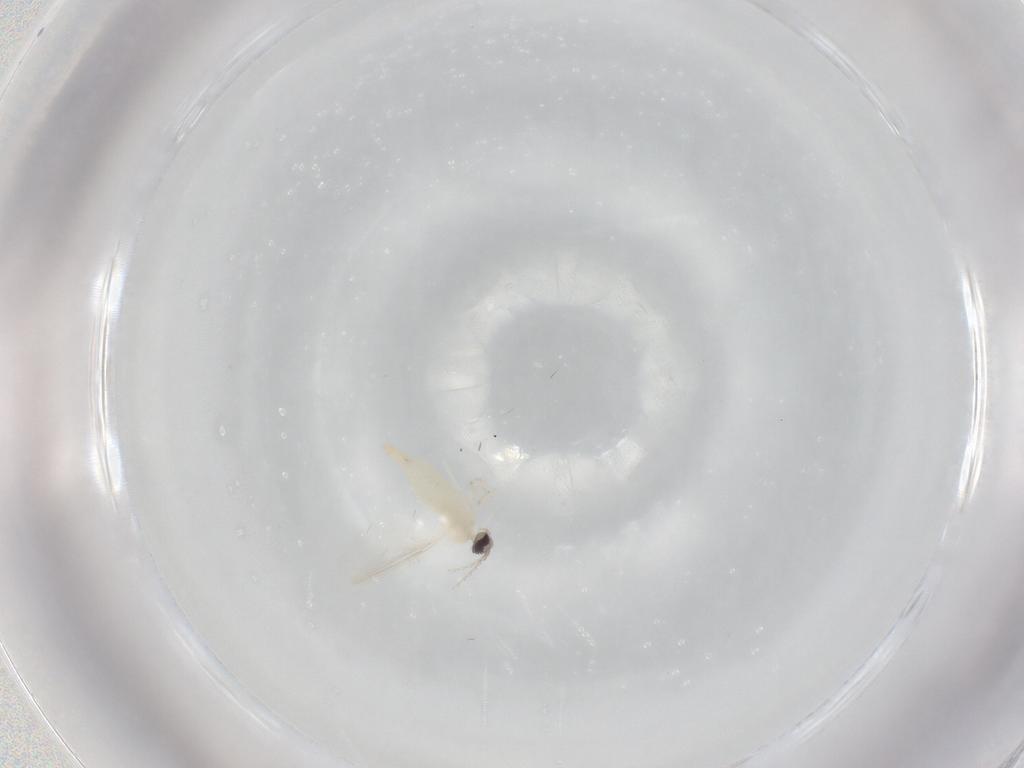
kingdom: Animalia
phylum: Arthropoda
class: Insecta
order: Diptera
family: Cecidomyiidae
